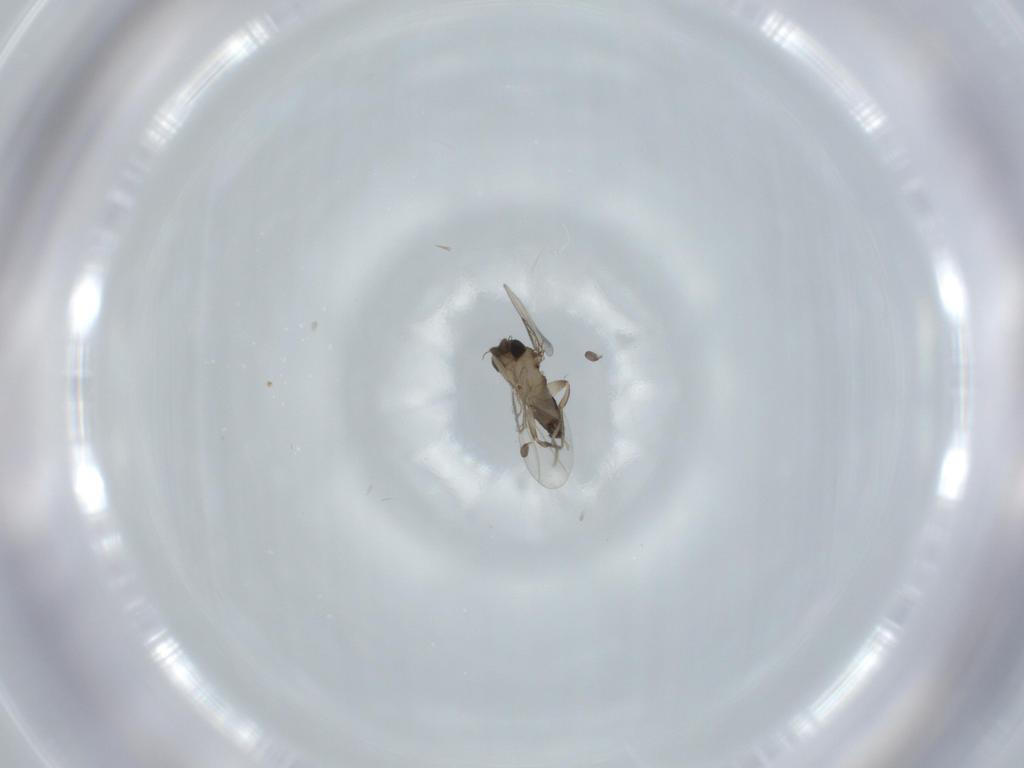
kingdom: Animalia
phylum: Arthropoda
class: Insecta
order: Diptera
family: Phoridae
